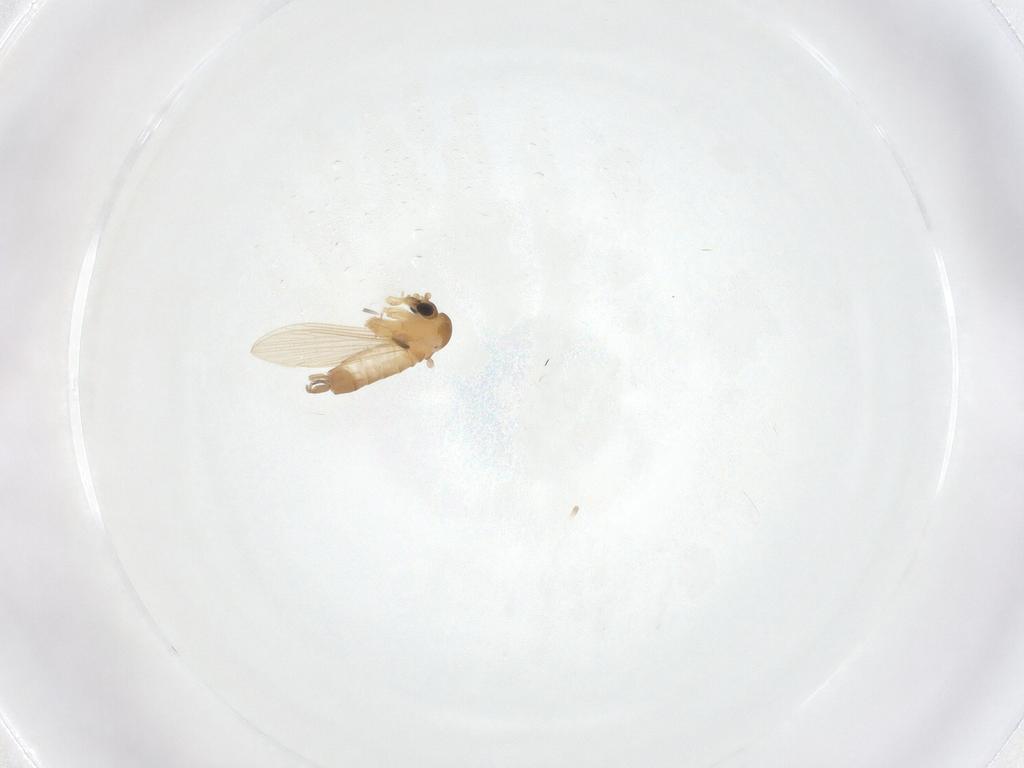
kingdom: Animalia
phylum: Arthropoda
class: Insecta
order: Diptera
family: Psychodidae
